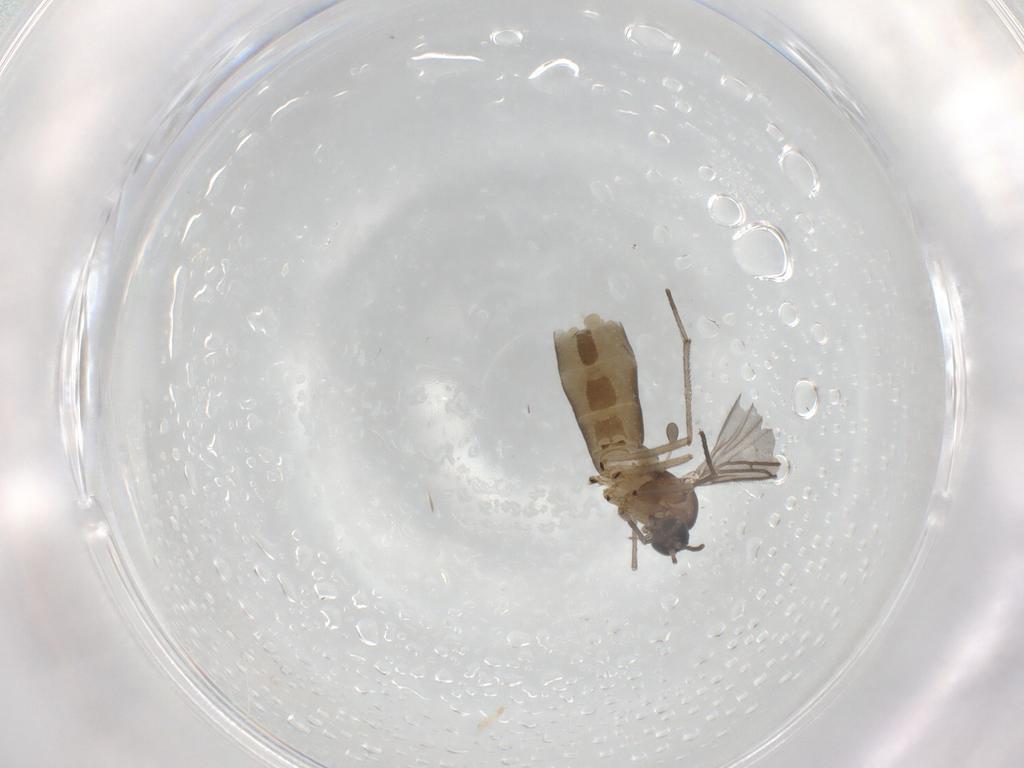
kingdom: Animalia
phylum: Arthropoda
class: Insecta
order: Diptera
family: Sciaridae
